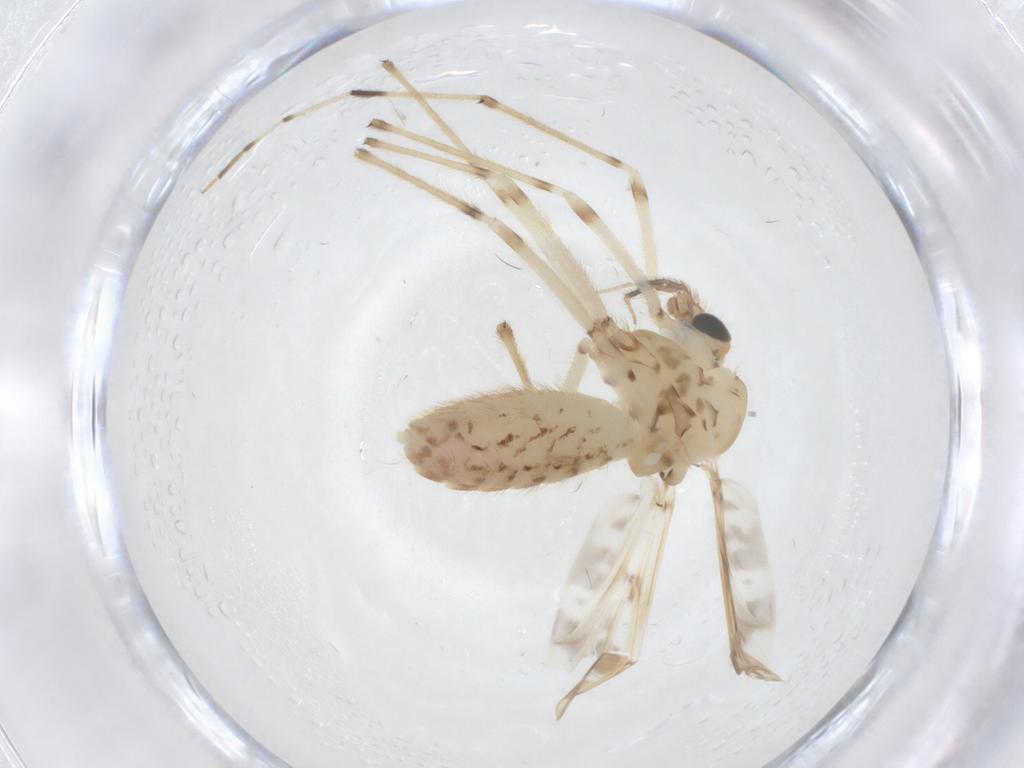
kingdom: Animalia
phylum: Arthropoda
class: Insecta
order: Diptera
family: Chironomidae
